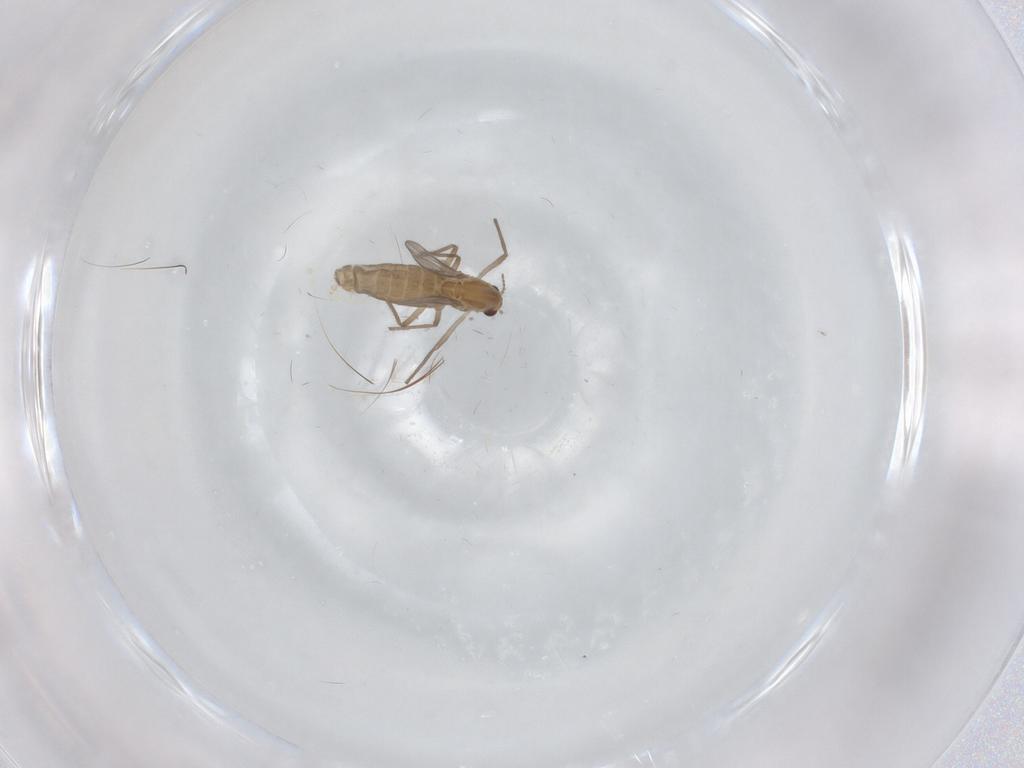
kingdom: Animalia
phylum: Arthropoda
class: Insecta
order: Diptera
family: Chironomidae
